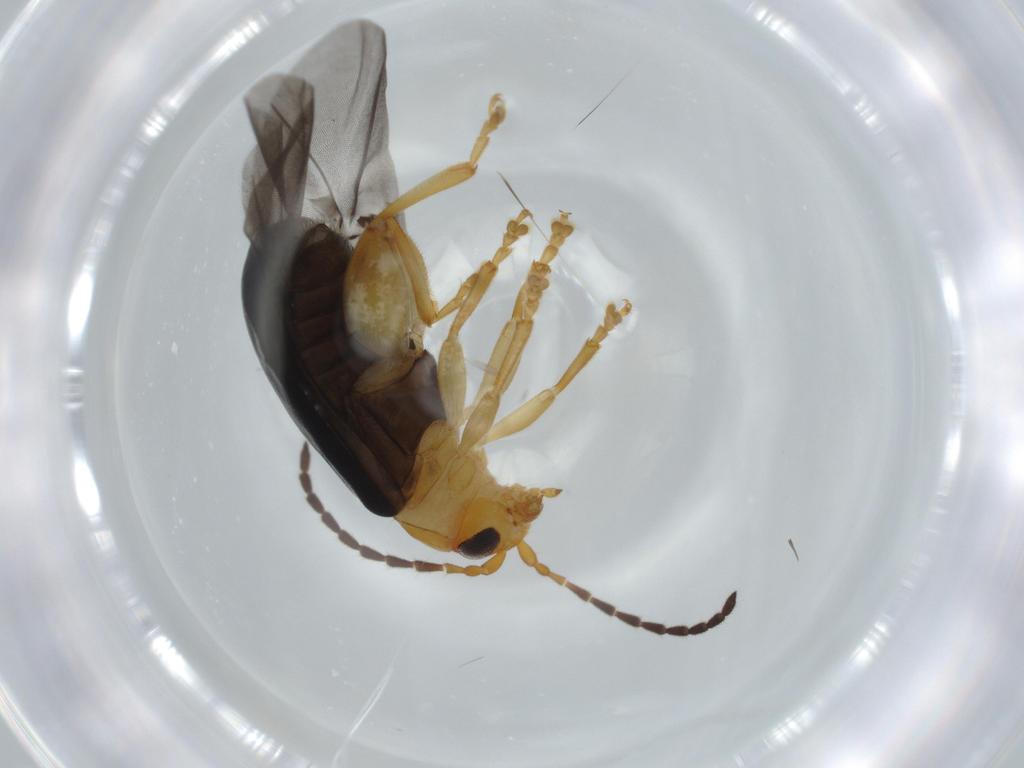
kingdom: Animalia
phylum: Arthropoda
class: Insecta
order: Coleoptera
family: Chrysomelidae
